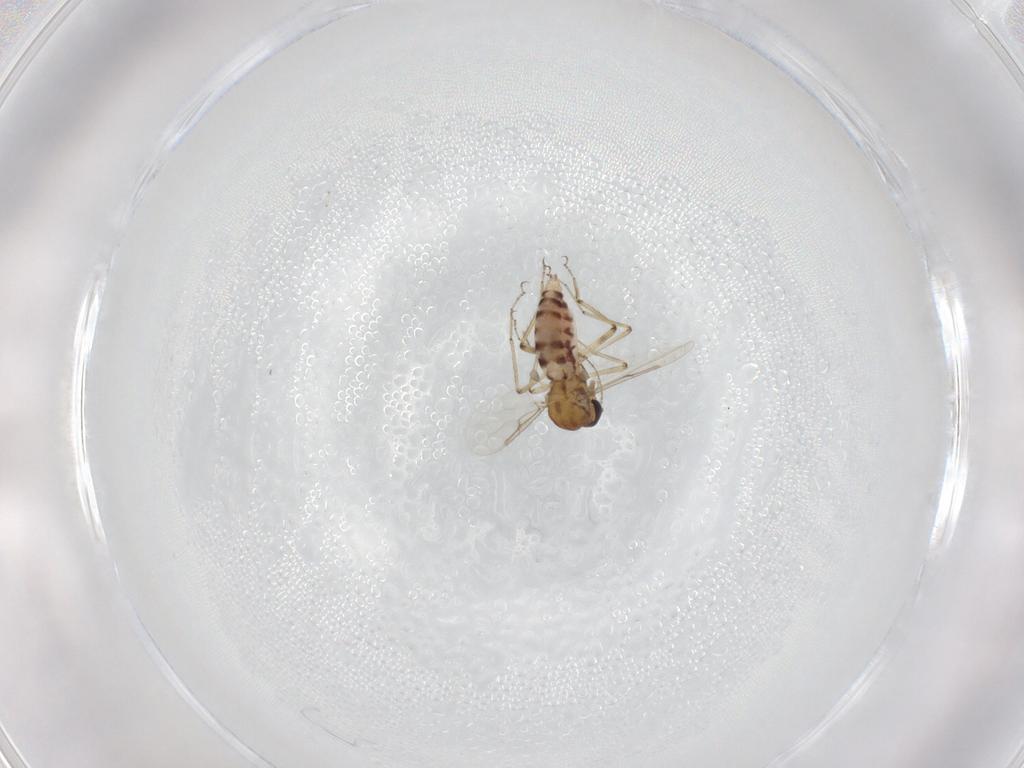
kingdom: Animalia
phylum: Arthropoda
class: Insecta
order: Diptera
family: Ceratopogonidae
